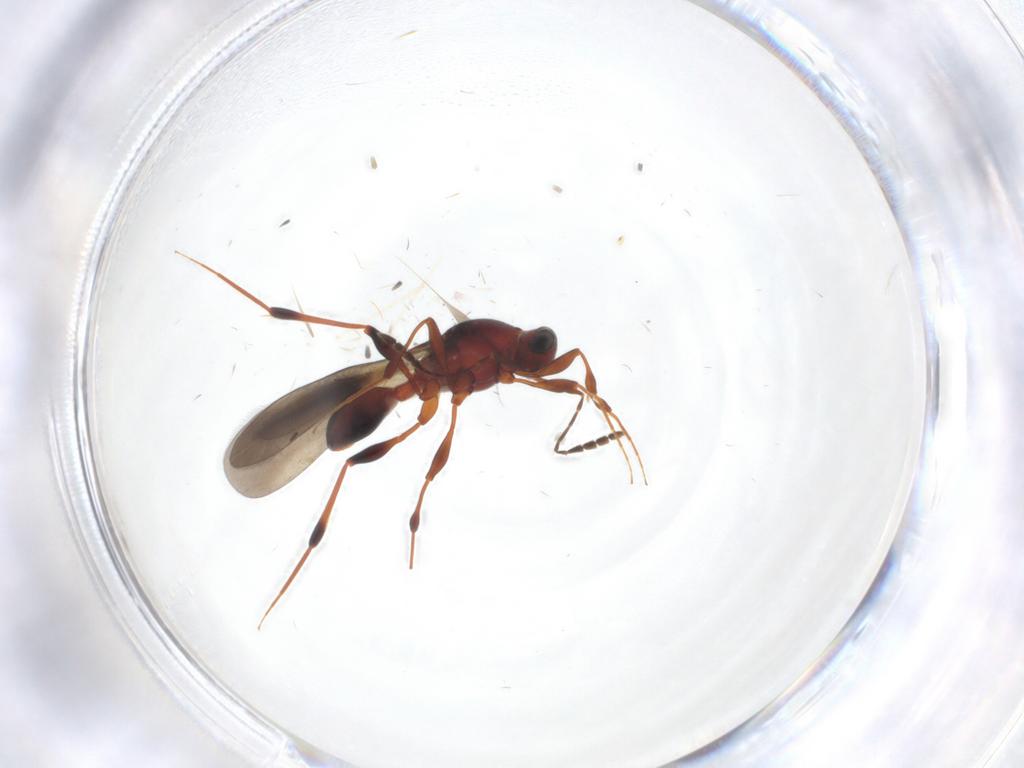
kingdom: Animalia
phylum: Arthropoda
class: Insecta
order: Hymenoptera
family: Platygastridae
